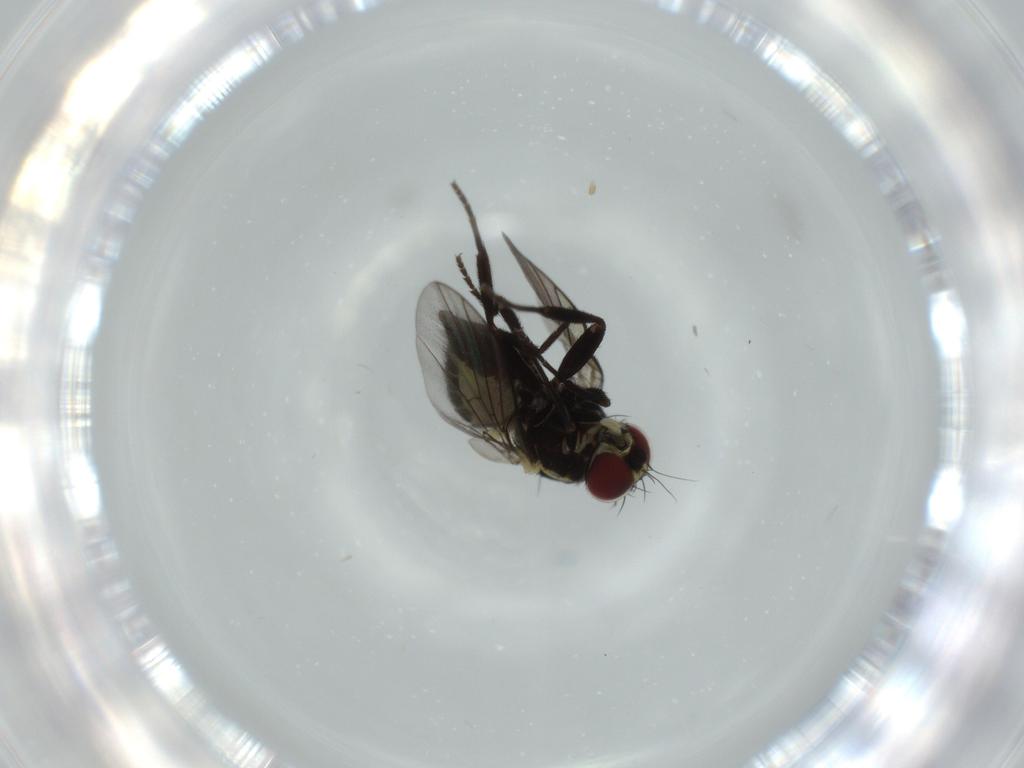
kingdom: Animalia
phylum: Arthropoda
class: Insecta
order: Diptera
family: Agromyzidae
